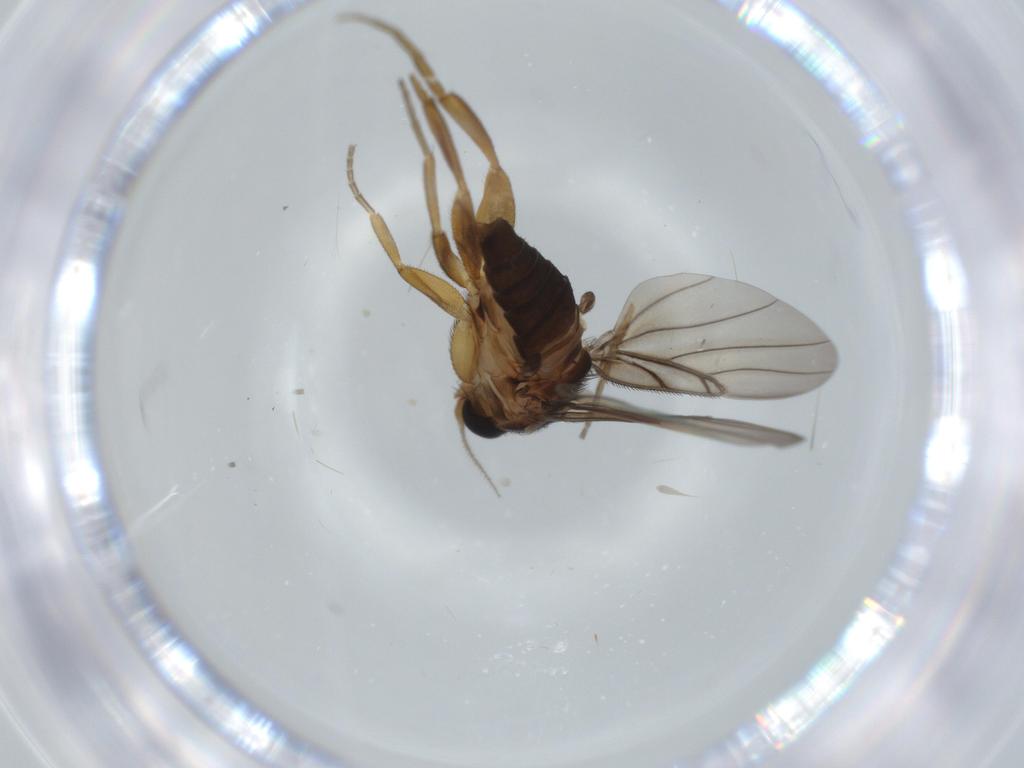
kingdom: Animalia
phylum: Arthropoda
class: Insecta
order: Diptera
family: Phoridae
